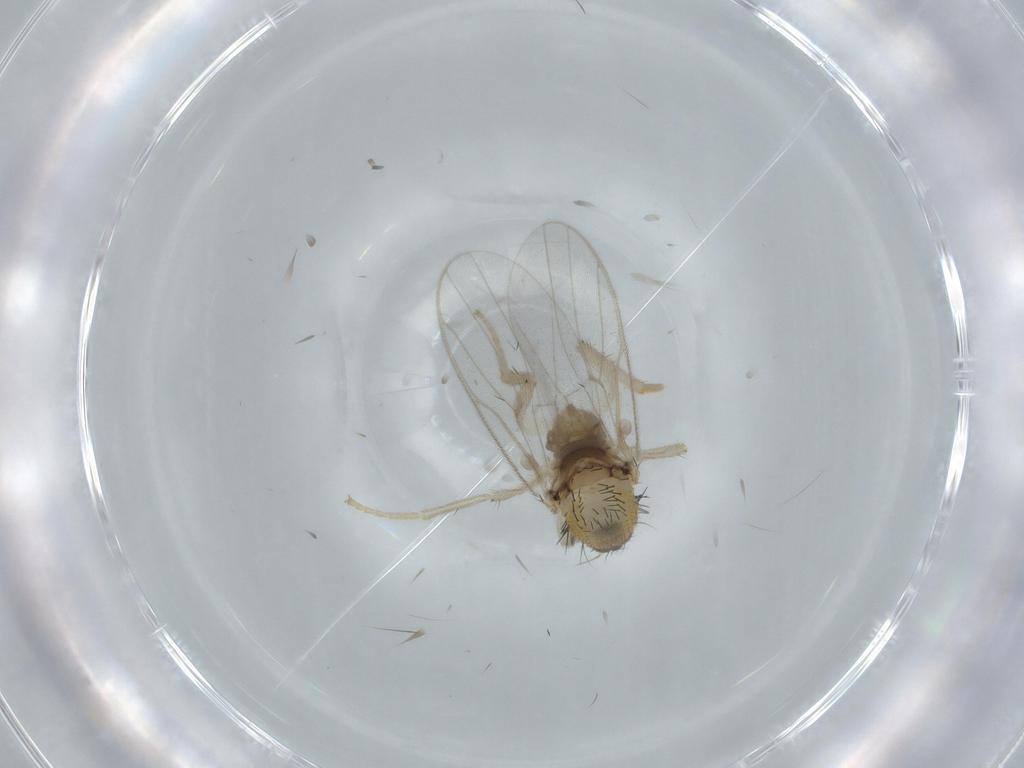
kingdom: Animalia
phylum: Arthropoda
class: Insecta
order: Diptera
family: Hybotidae
